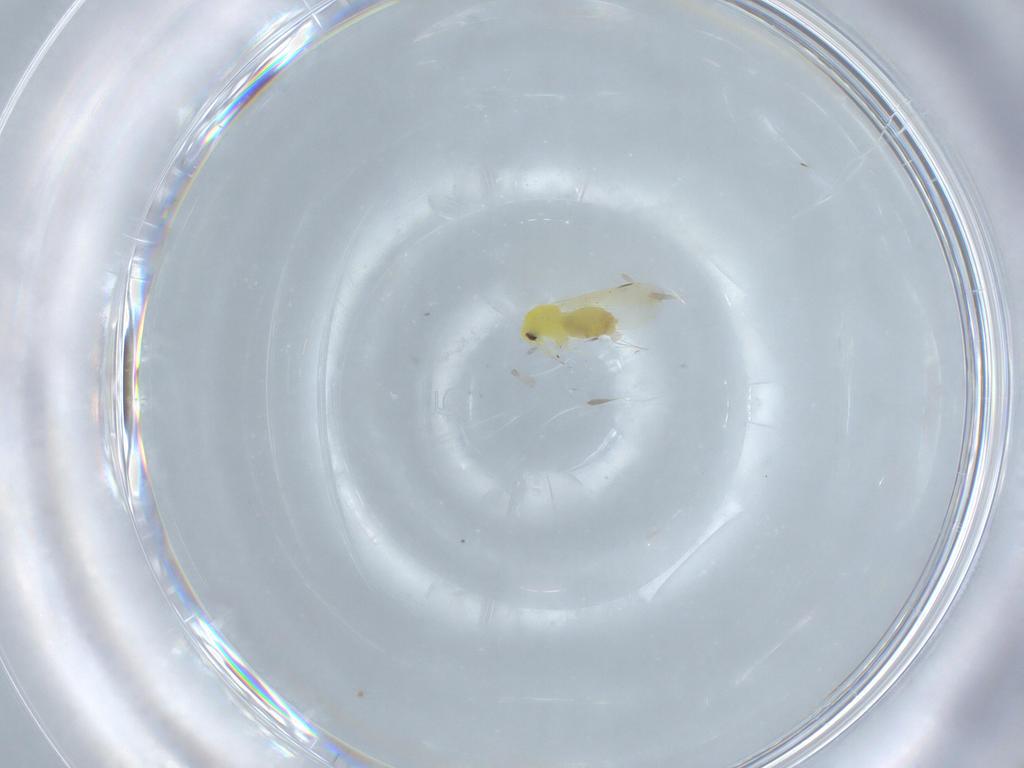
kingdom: Animalia
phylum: Arthropoda
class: Insecta
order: Hemiptera
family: Aleyrodidae
